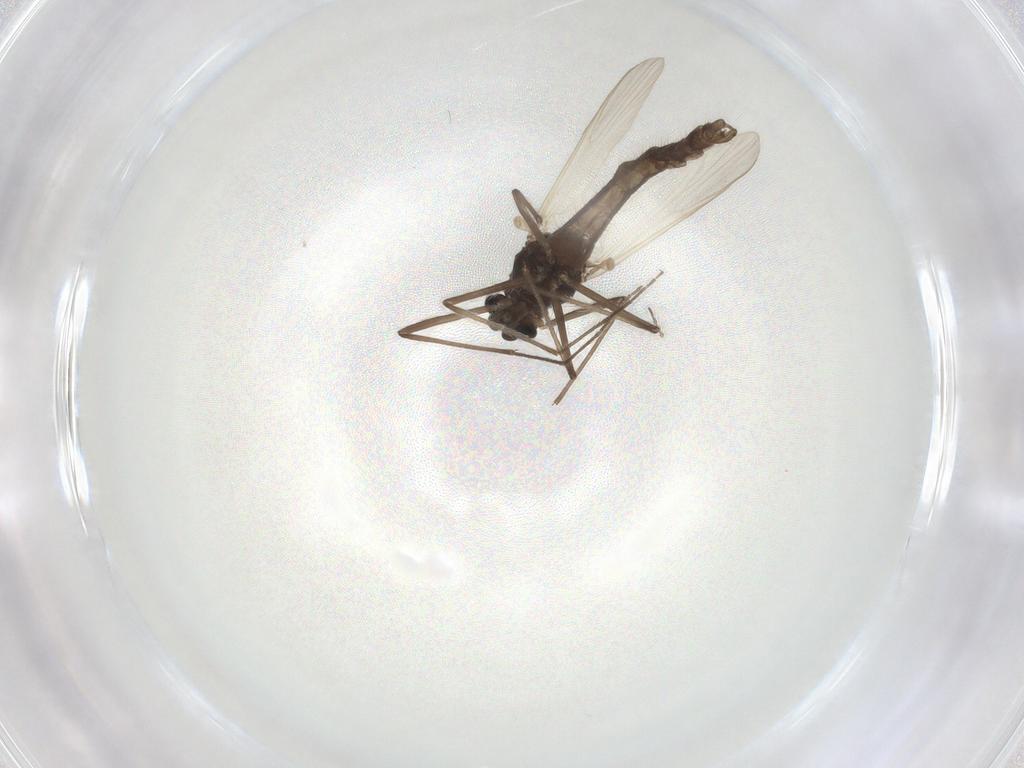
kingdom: Animalia
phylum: Arthropoda
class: Insecta
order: Diptera
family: Chironomidae
